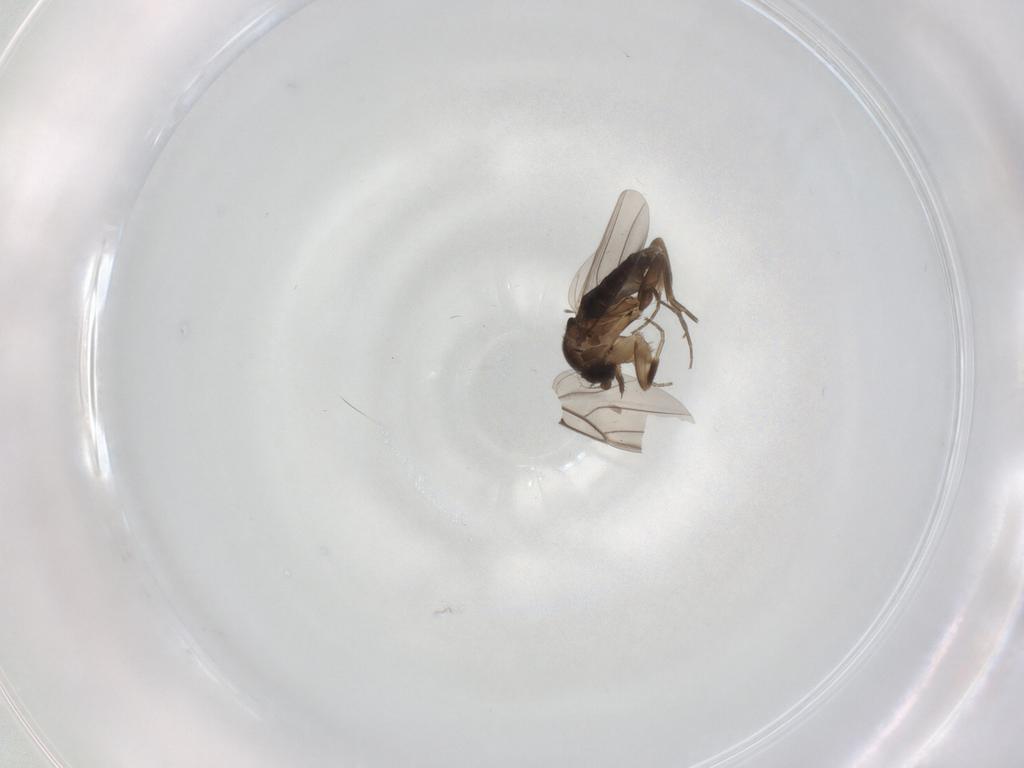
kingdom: Animalia
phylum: Arthropoda
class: Insecta
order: Diptera
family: Phoridae
